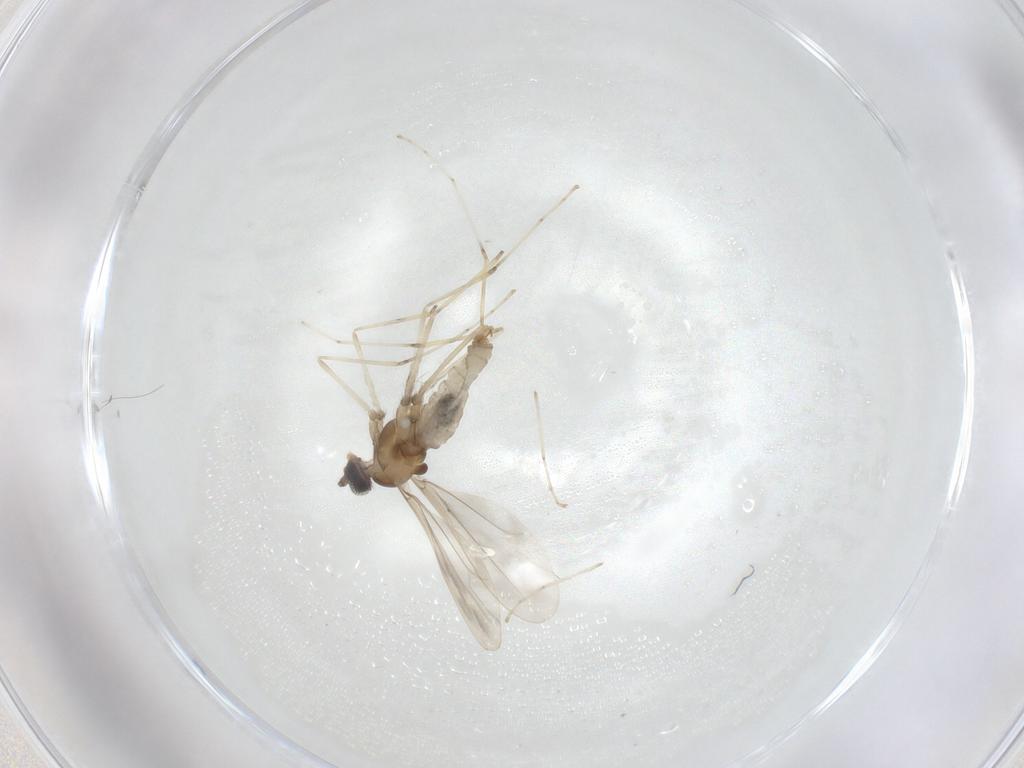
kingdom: Animalia
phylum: Arthropoda
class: Insecta
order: Diptera
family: Cecidomyiidae
